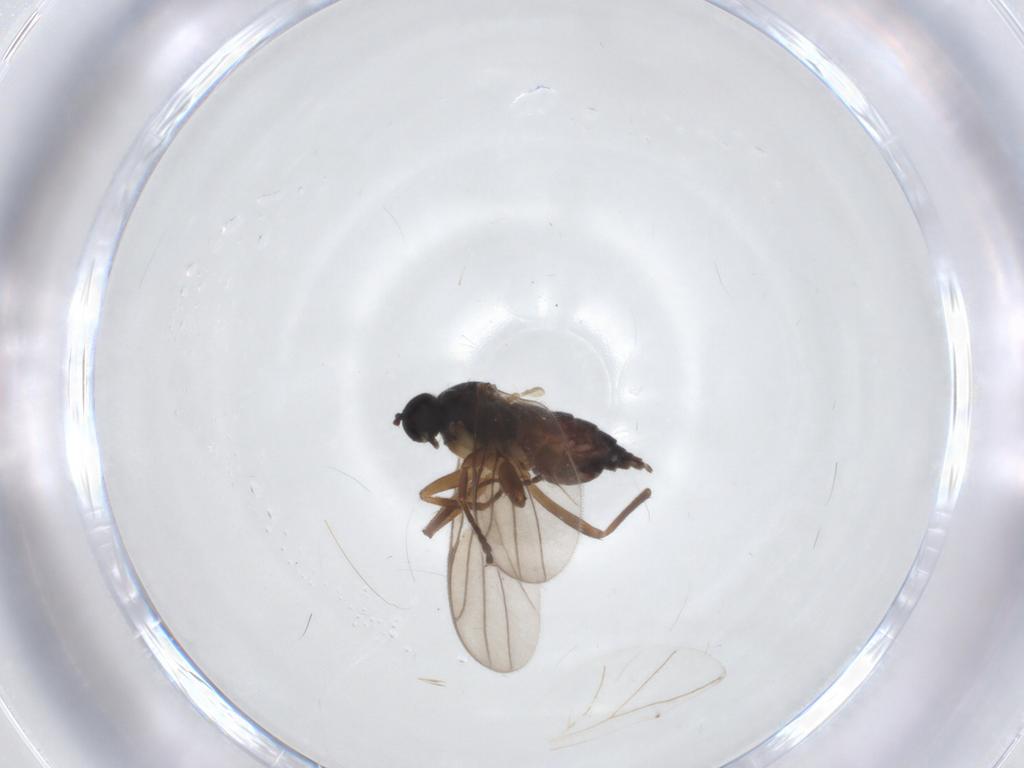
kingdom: Animalia
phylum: Arthropoda
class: Insecta
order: Diptera
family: Hybotidae
